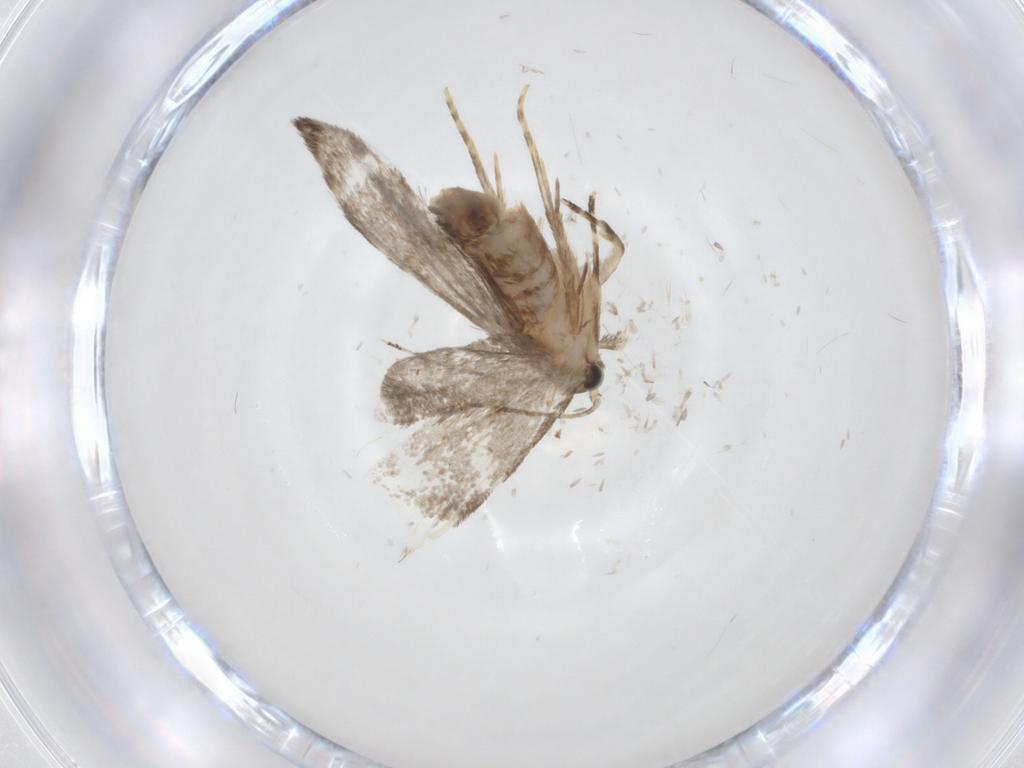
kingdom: Animalia
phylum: Arthropoda
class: Insecta
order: Lepidoptera
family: Tineidae
